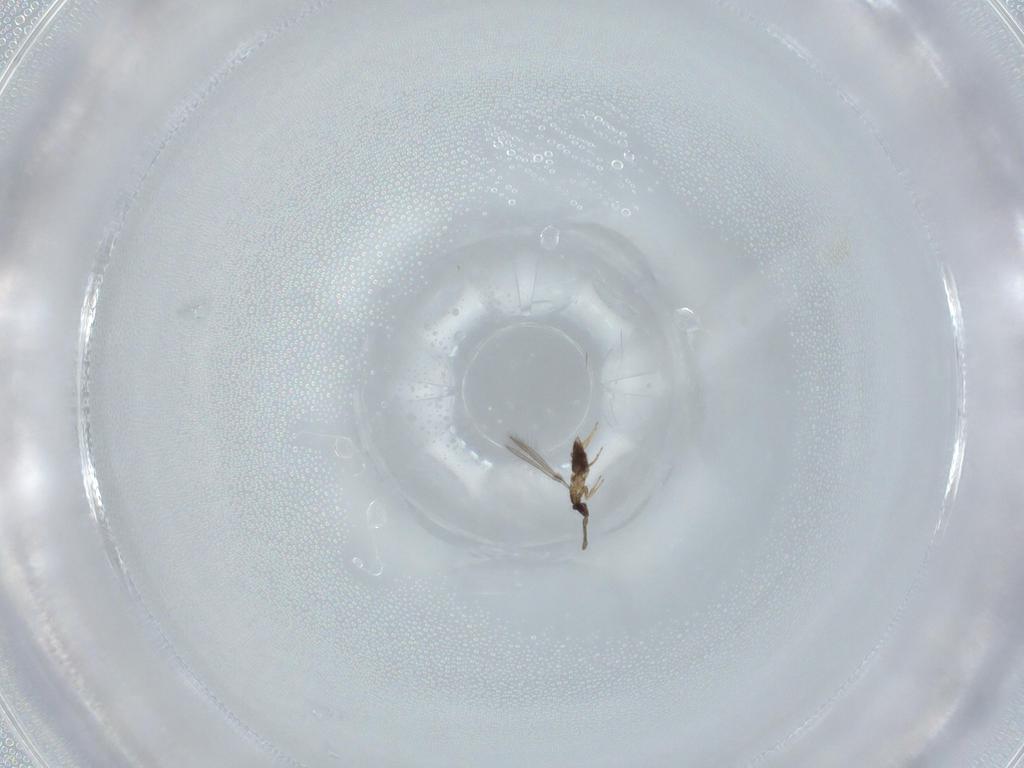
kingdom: Animalia
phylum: Arthropoda
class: Insecta
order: Hymenoptera
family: Mymaridae
